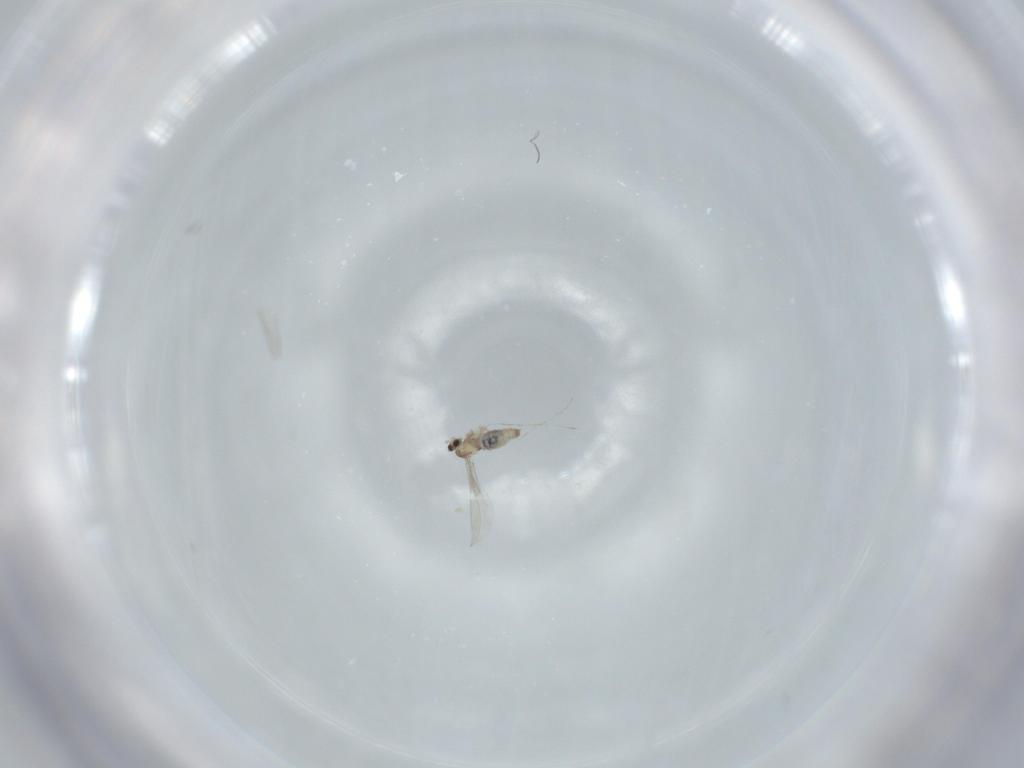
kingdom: Animalia
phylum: Arthropoda
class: Insecta
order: Diptera
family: Cecidomyiidae
